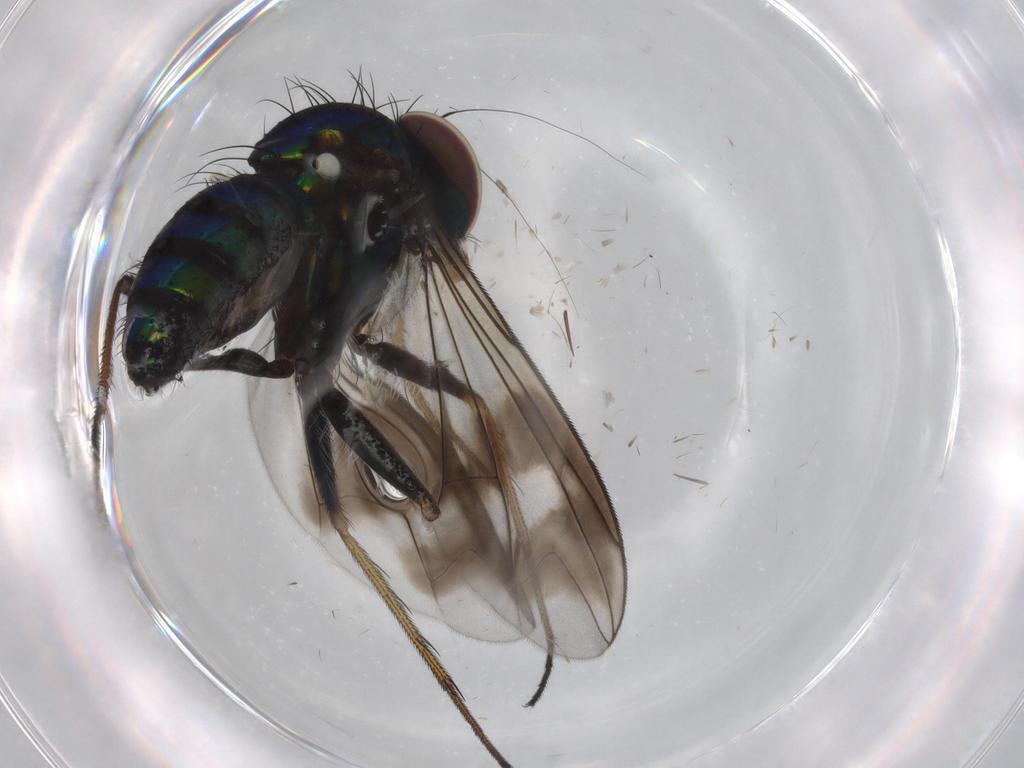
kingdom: Animalia
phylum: Arthropoda
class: Insecta
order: Diptera
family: Dolichopodidae
